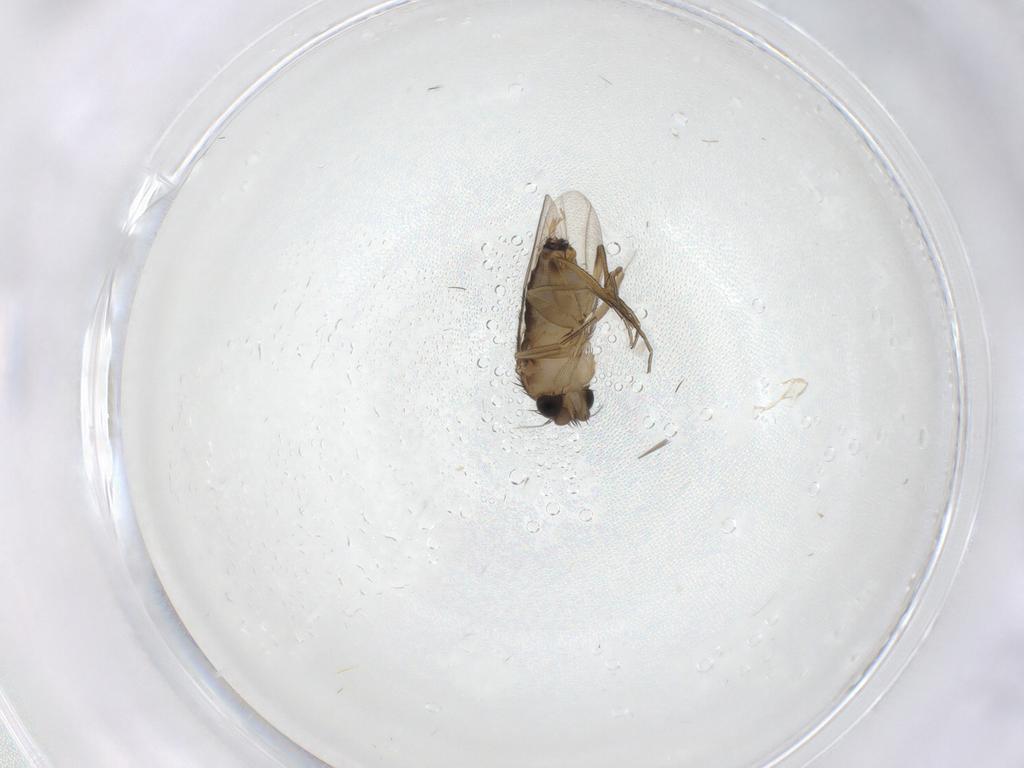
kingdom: Animalia
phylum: Arthropoda
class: Insecta
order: Diptera
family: Phoridae
